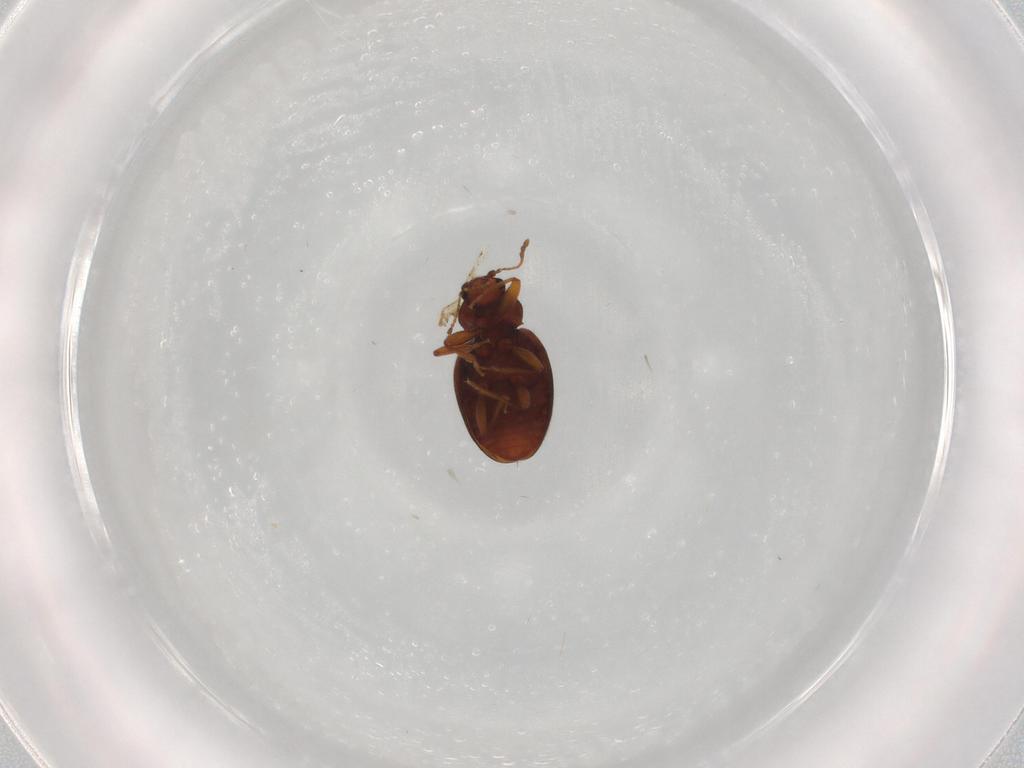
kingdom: Animalia
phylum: Arthropoda
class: Insecta
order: Coleoptera
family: Latridiidae
